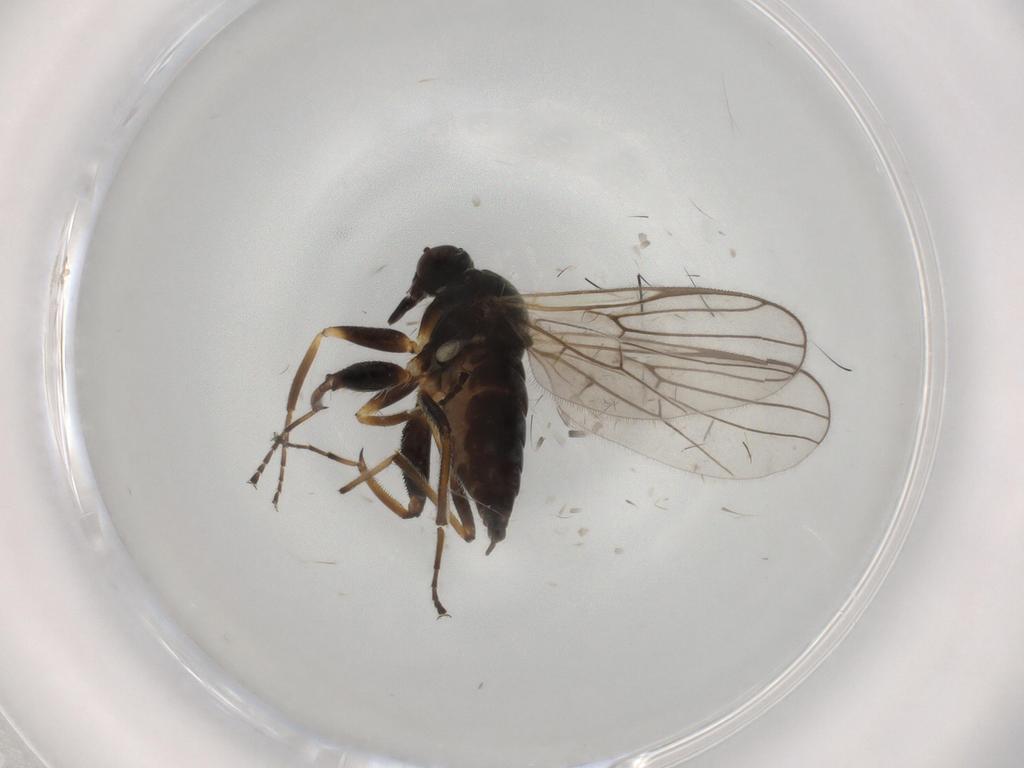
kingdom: Animalia
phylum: Arthropoda
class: Insecta
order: Diptera
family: Hybotidae
